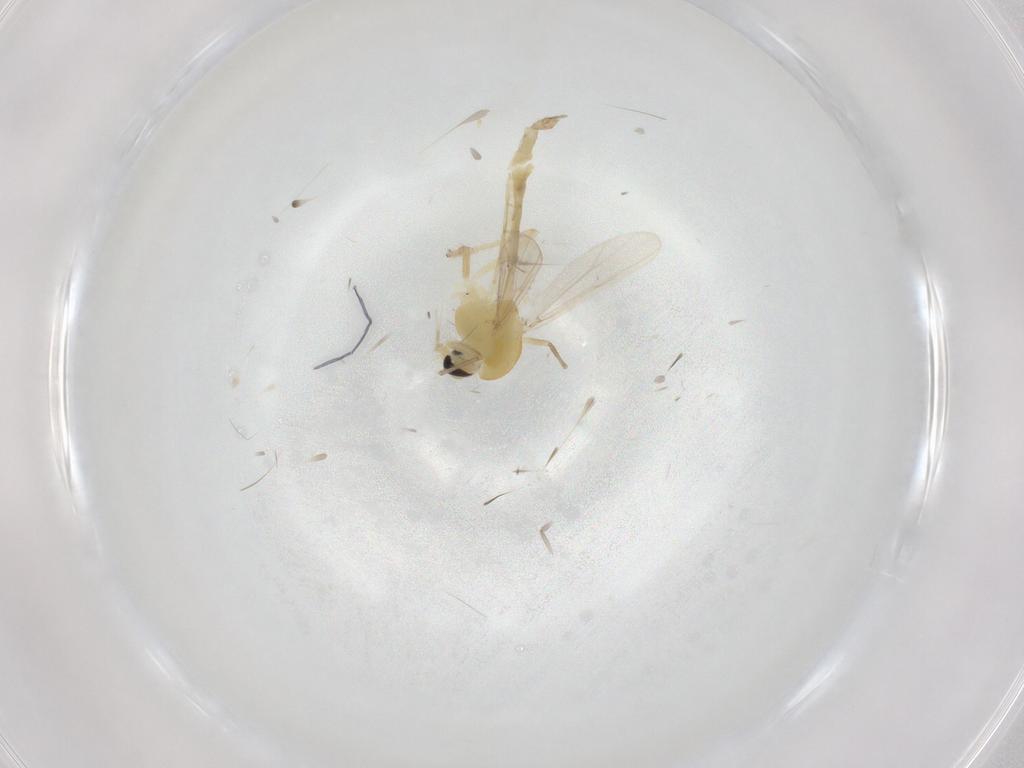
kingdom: Animalia
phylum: Arthropoda
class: Insecta
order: Diptera
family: Chironomidae
